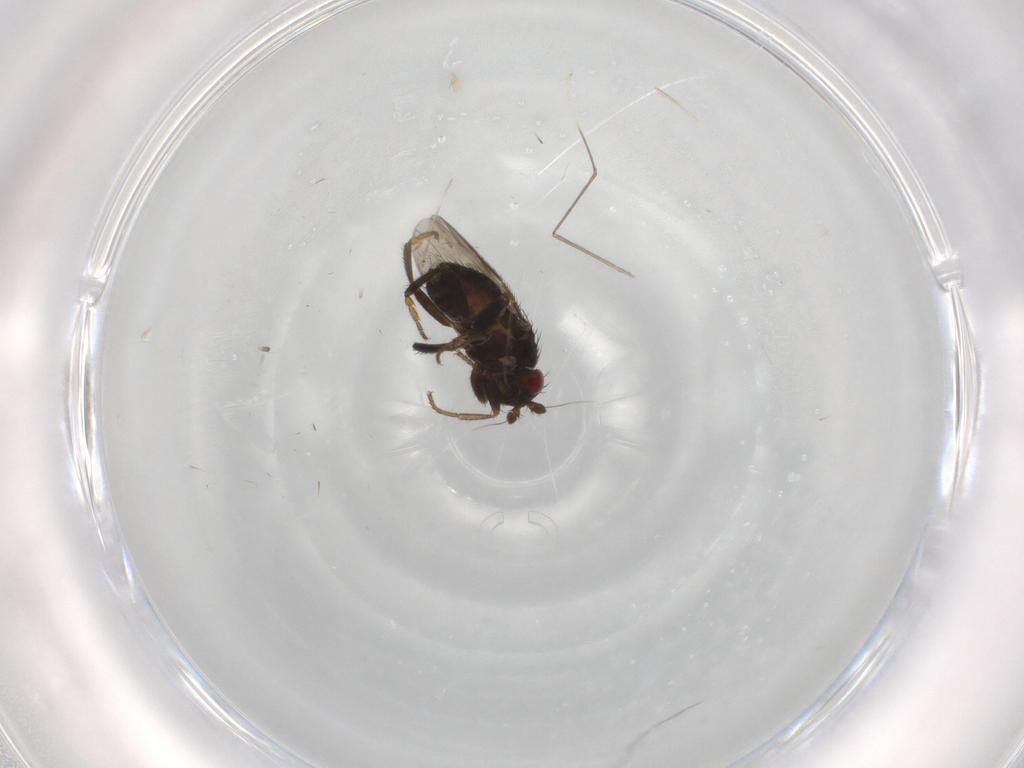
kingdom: Animalia
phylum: Arthropoda
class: Insecta
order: Diptera
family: Cecidomyiidae
